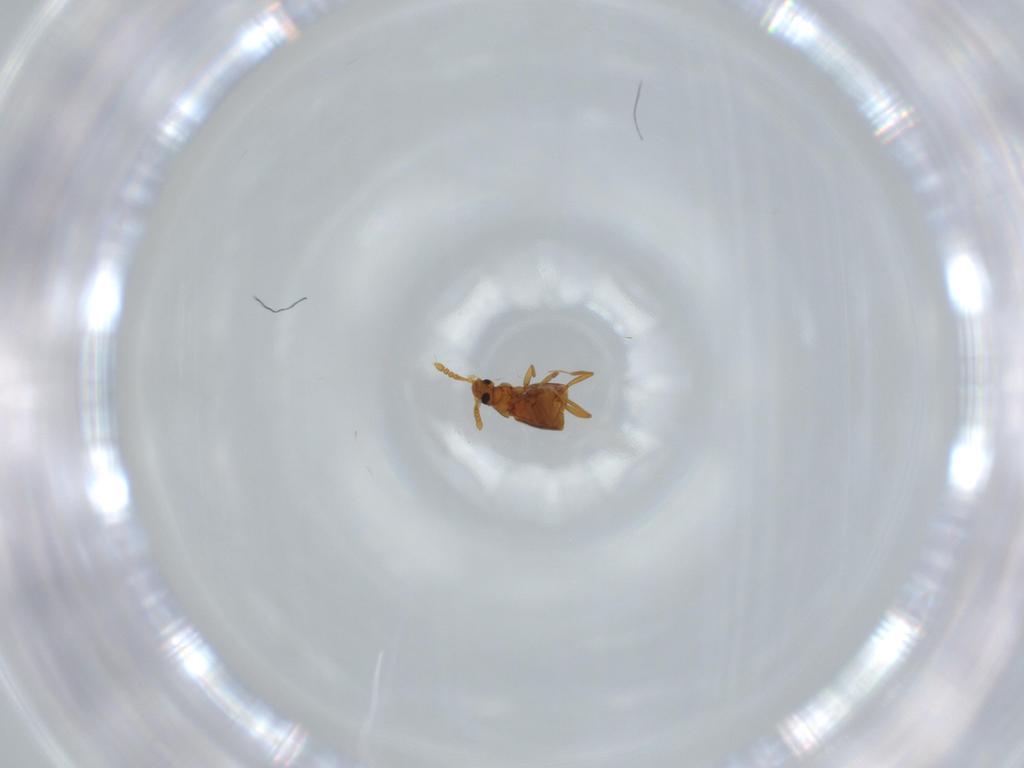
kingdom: Animalia
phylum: Arthropoda
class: Insecta
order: Coleoptera
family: Staphylinidae
